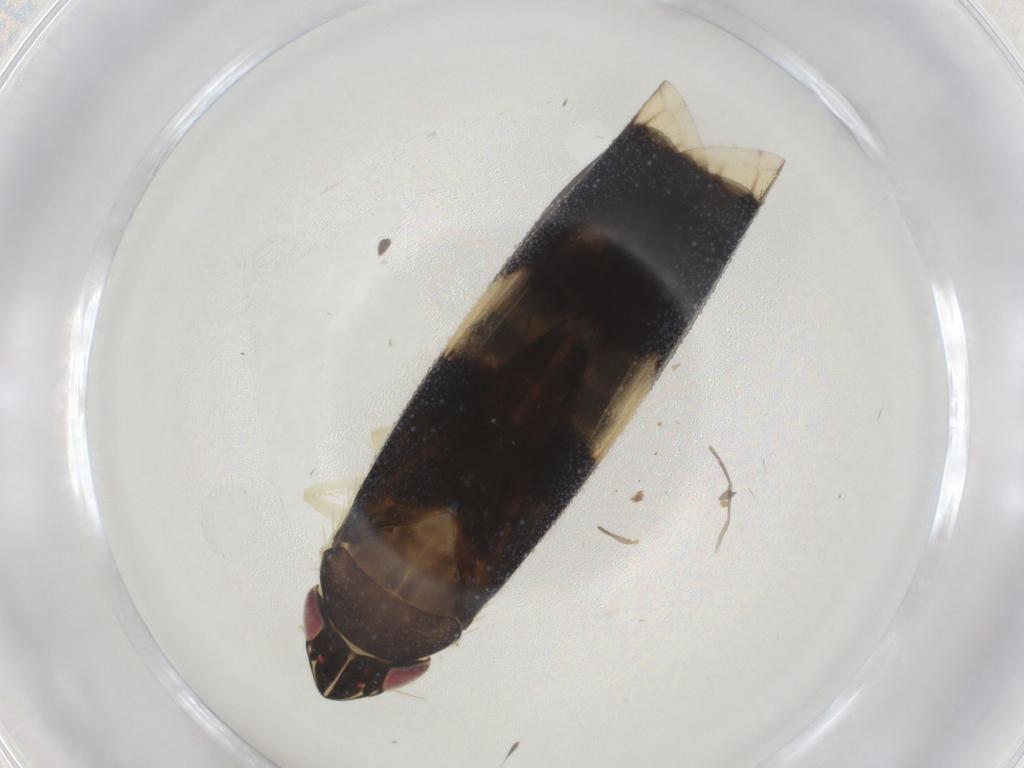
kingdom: Animalia
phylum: Arthropoda
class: Insecta
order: Hemiptera
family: Cicadellidae
